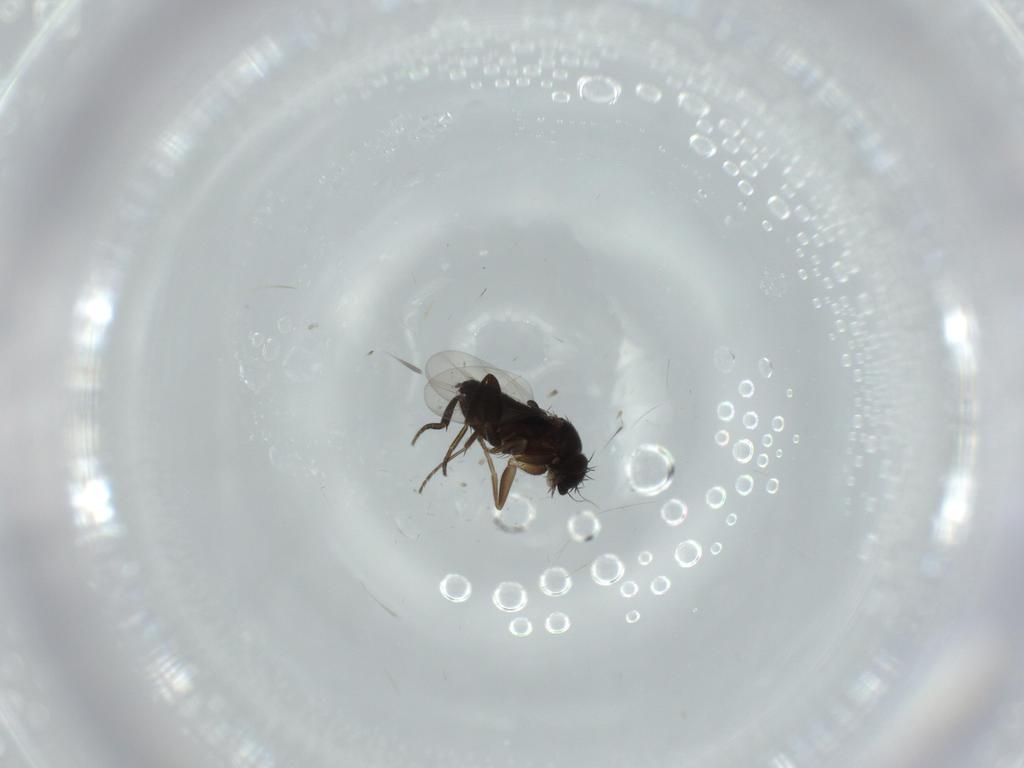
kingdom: Animalia
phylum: Arthropoda
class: Insecta
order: Diptera
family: Phoridae
